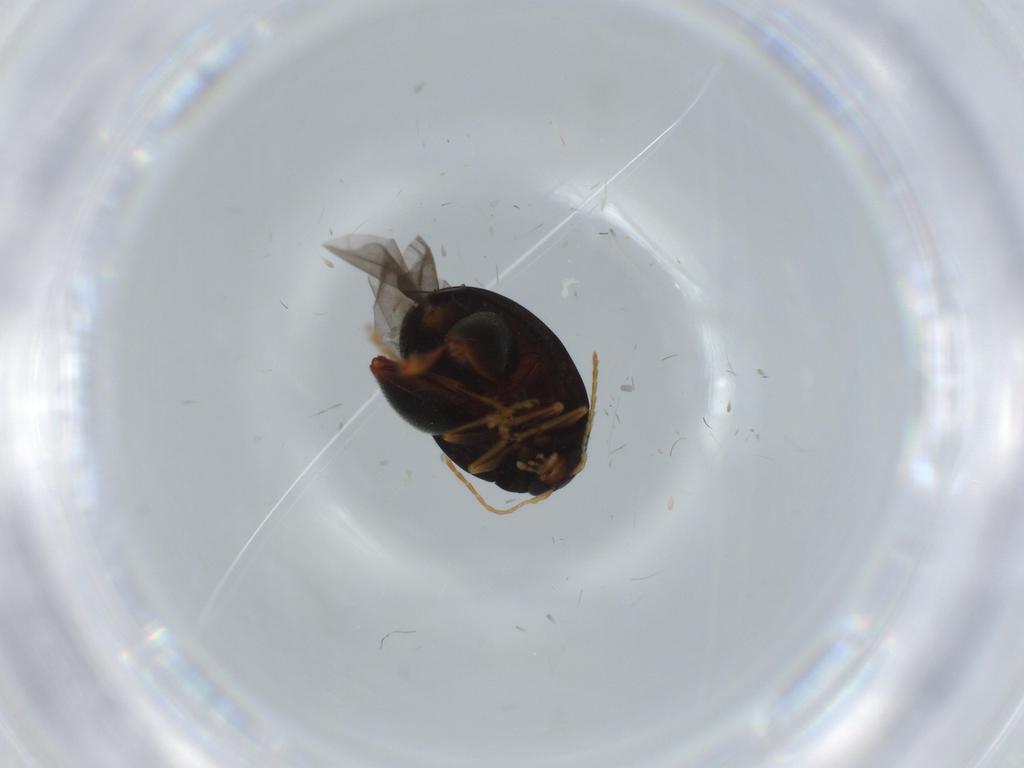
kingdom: Animalia
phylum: Arthropoda
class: Insecta
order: Coleoptera
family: Chrysomelidae
